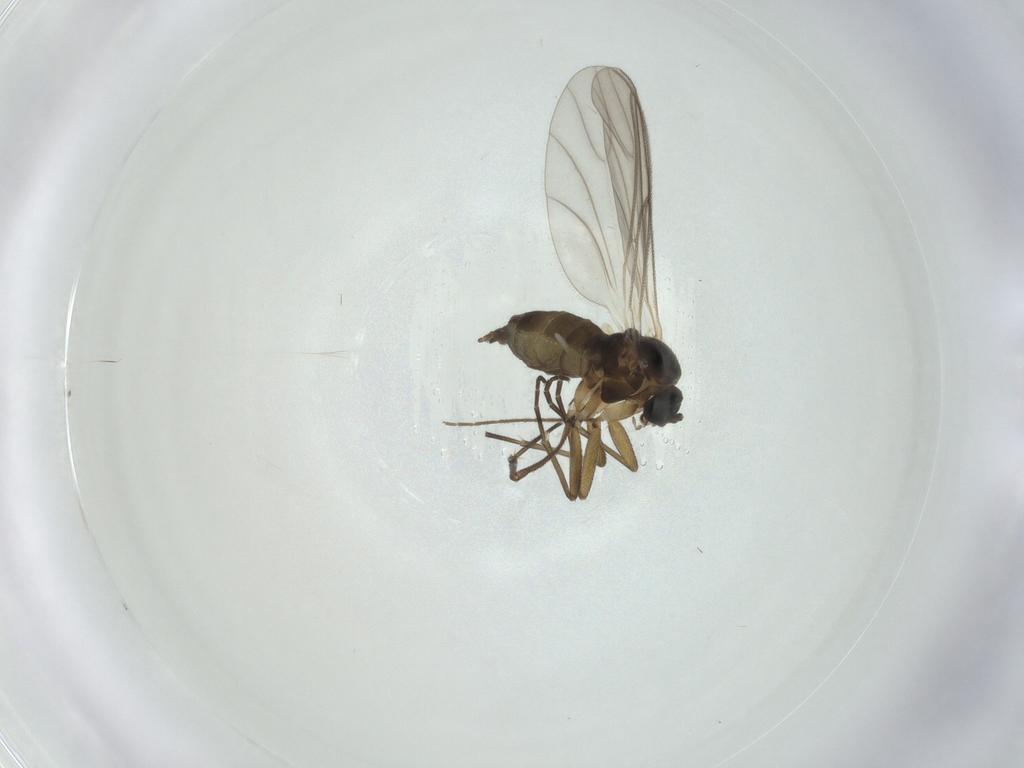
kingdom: Animalia
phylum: Arthropoda
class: Insecta
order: Diptera
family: Chironomidae
